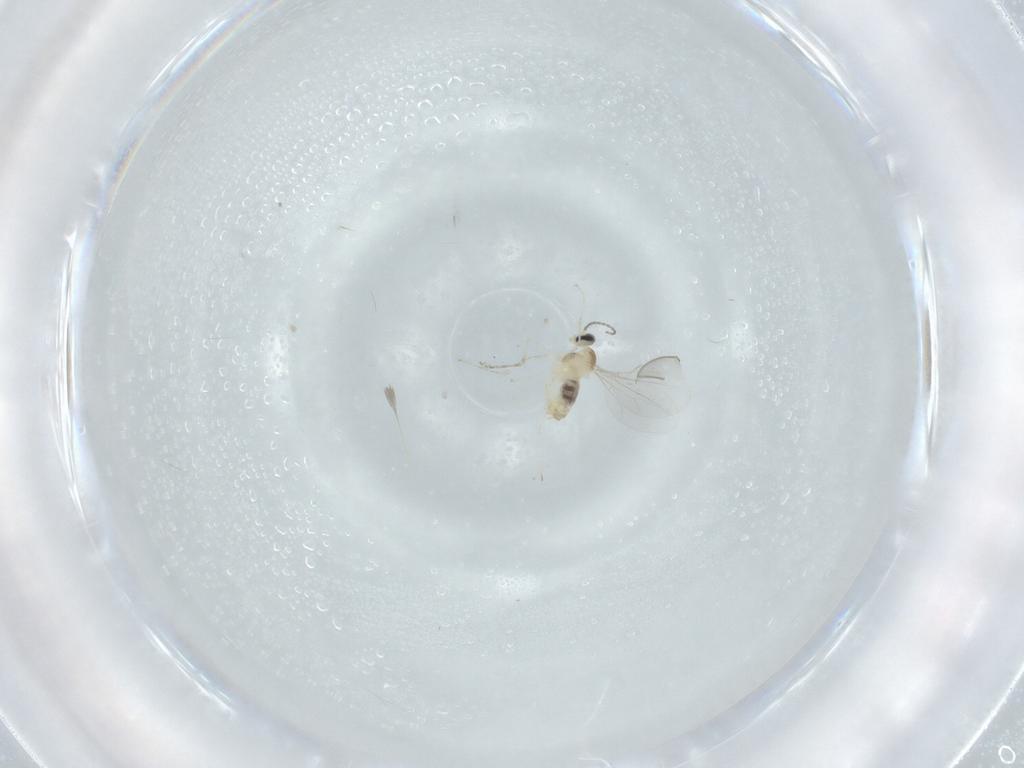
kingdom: Animalia
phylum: Arthropoda
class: Insecta
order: Diptera
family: Cecidomyiidae
